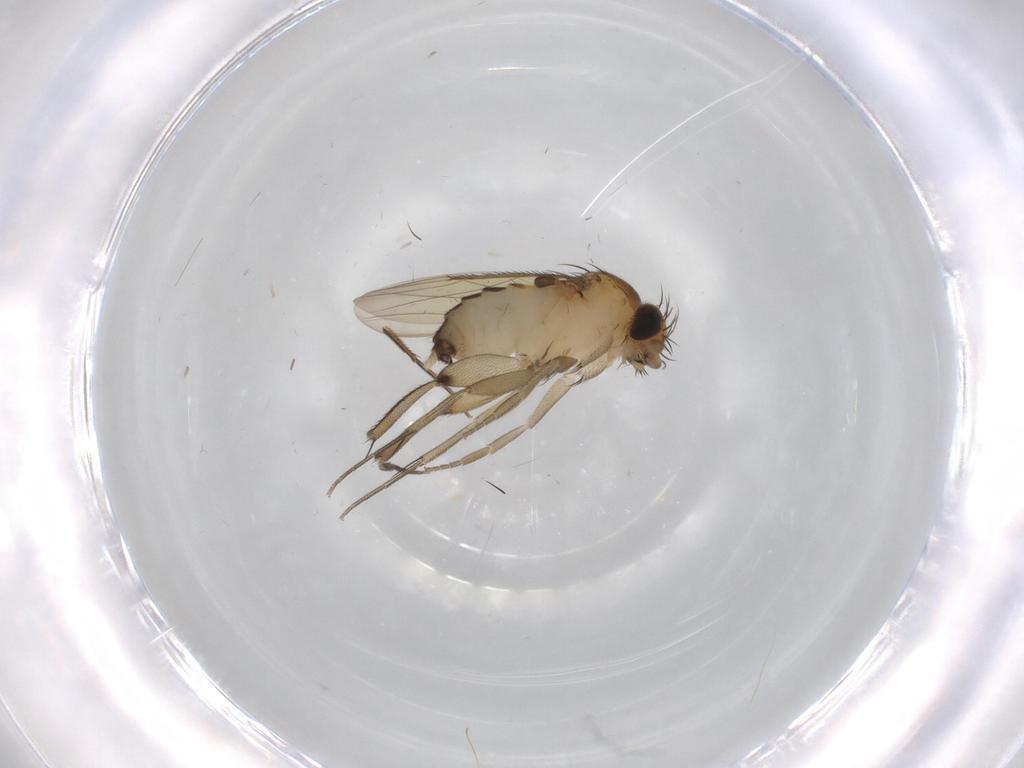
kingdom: Animalia
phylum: Arthropoda
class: Insecta
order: Diptera
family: Phoridae
